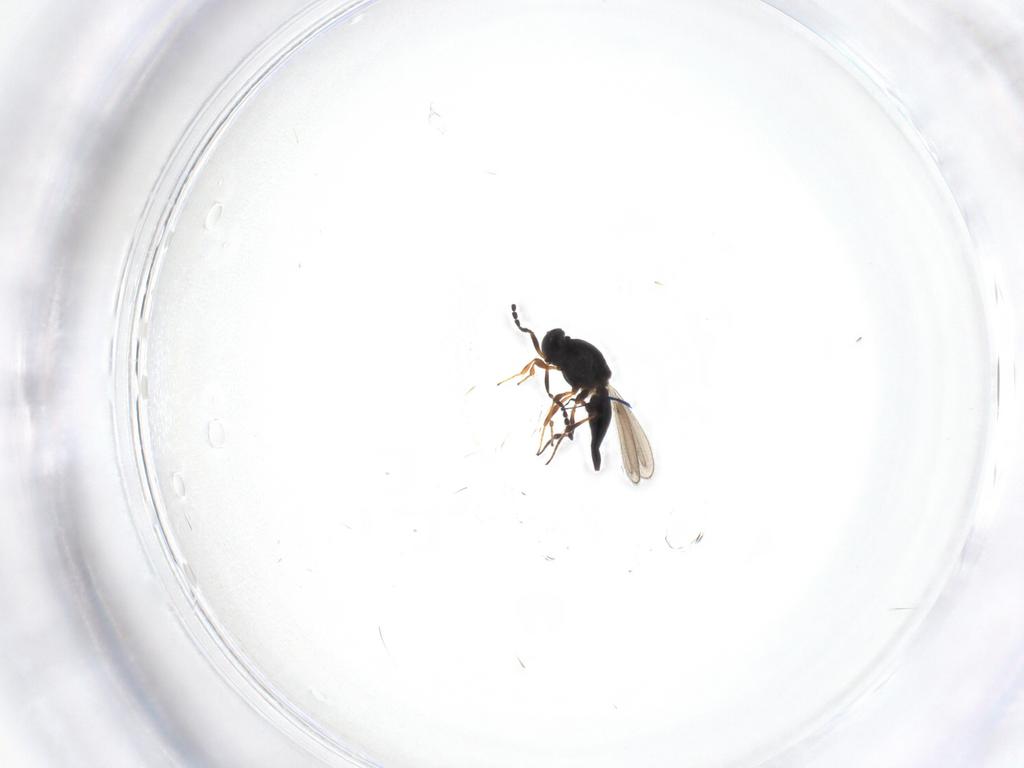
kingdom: Animalia
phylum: Arthropoda
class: Insecta
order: Hymenoptera
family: Platygastridae
